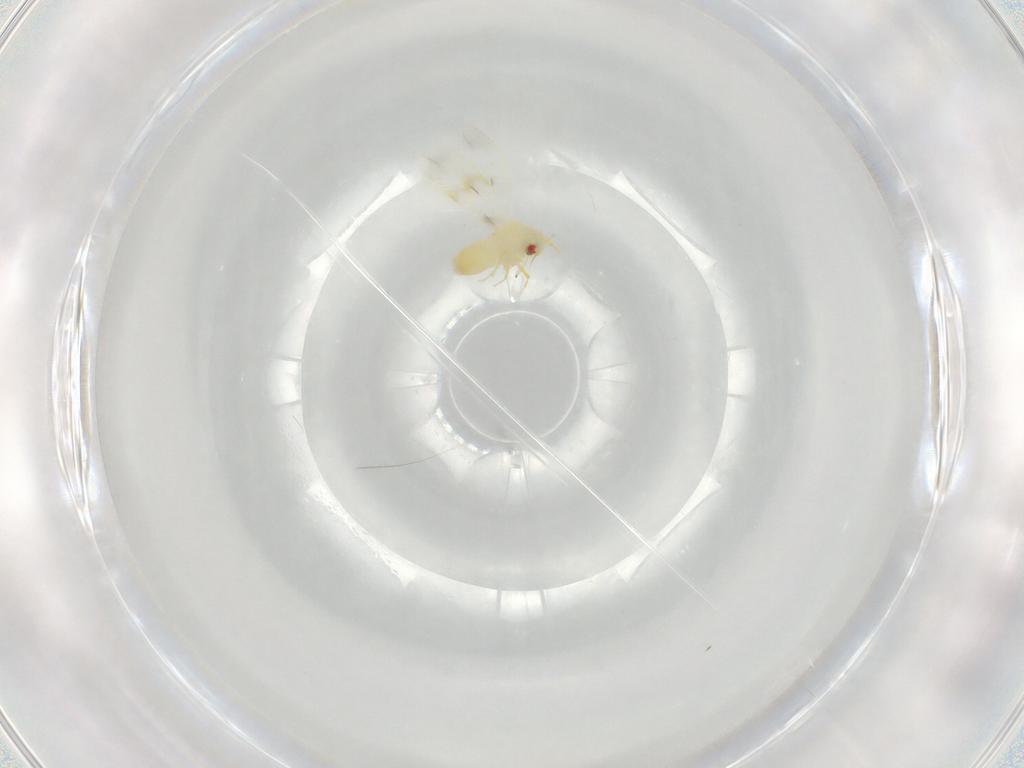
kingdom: Animalia
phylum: Arthropoda
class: Insecta
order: Hemiptera
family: Aleyrodidae
